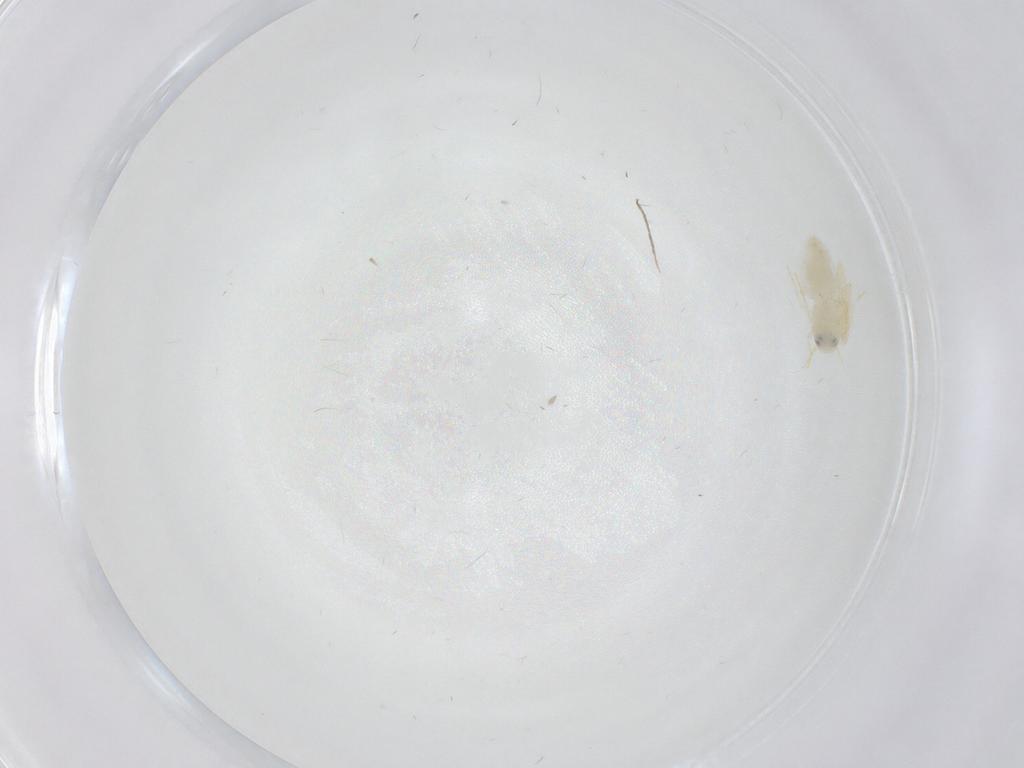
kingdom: Animalia
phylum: Arthropoda
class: Insecta
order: Hemiptera
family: Aleyrodidae
